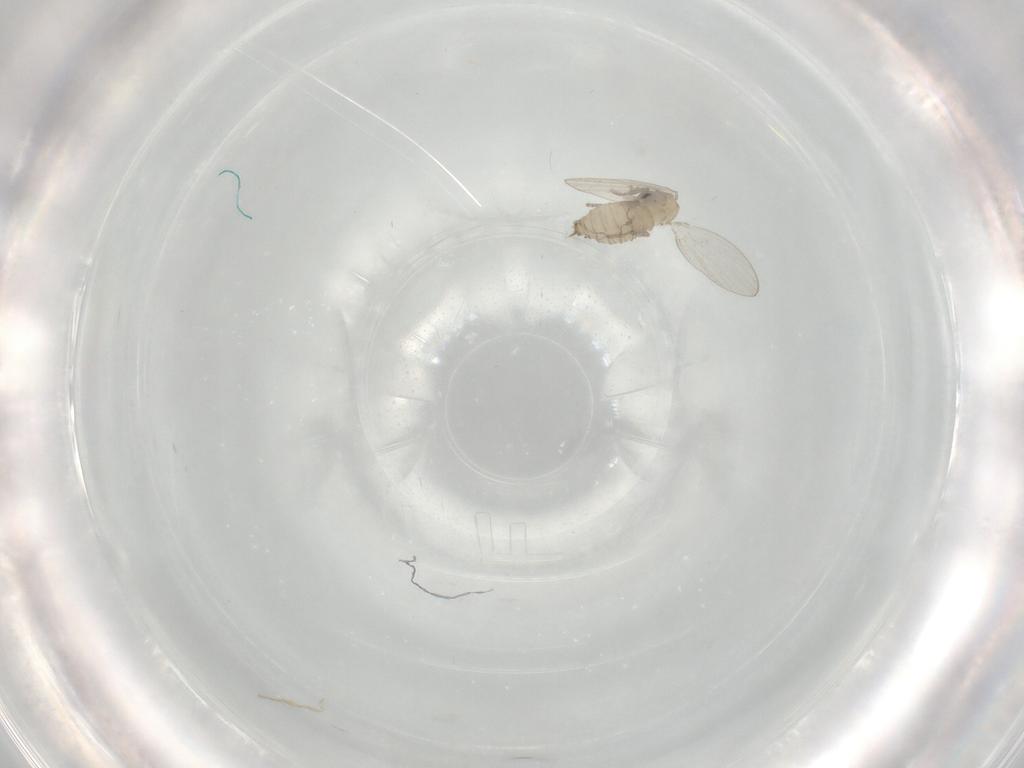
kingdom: Animalia
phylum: Arthropoda
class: Insecta
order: Diptera
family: Psychodidae
